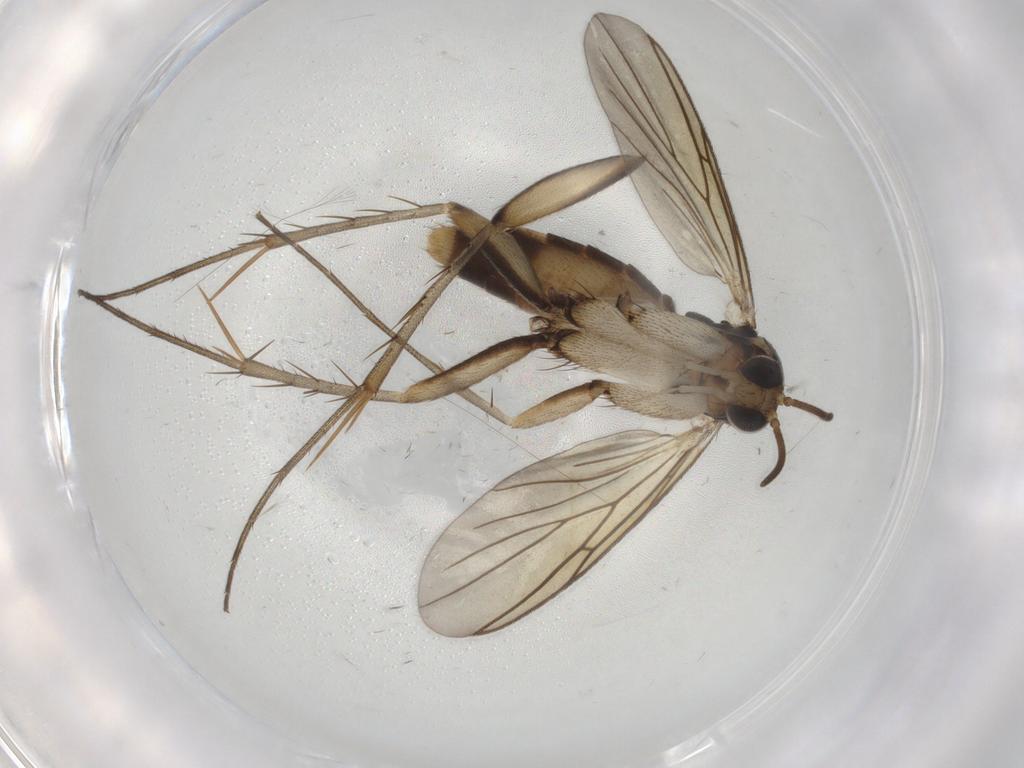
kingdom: Animalia
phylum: Arthropoda
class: Insecta
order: Diptera
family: Mycetophilidae
